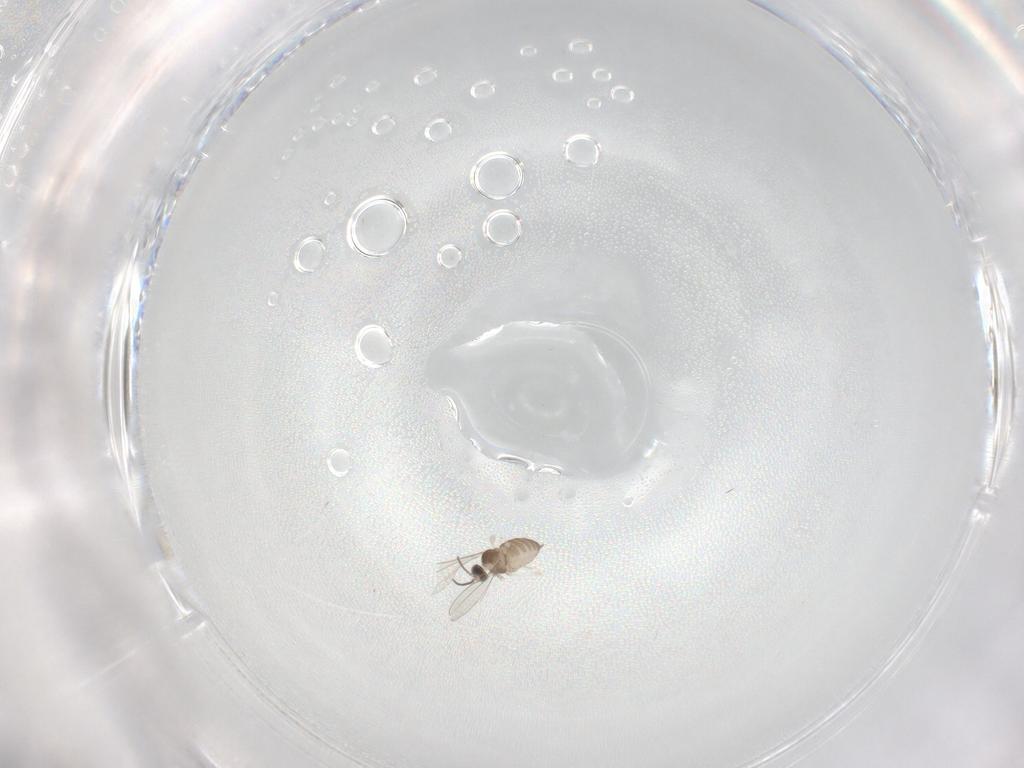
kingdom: Animalia
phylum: Arthropoda
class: Insecta
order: Diptera
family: Cecidomyiidae
